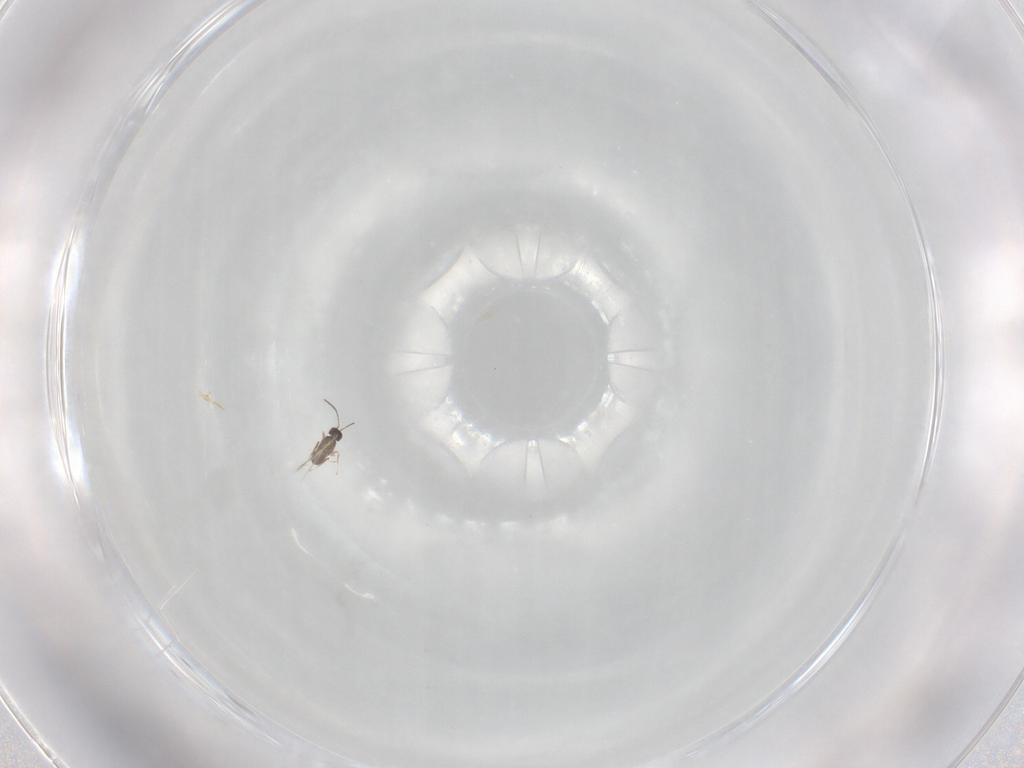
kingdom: Animalia
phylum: Arthropoda
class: Insecta
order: Hymenoptera
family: Trichogrammatidae
